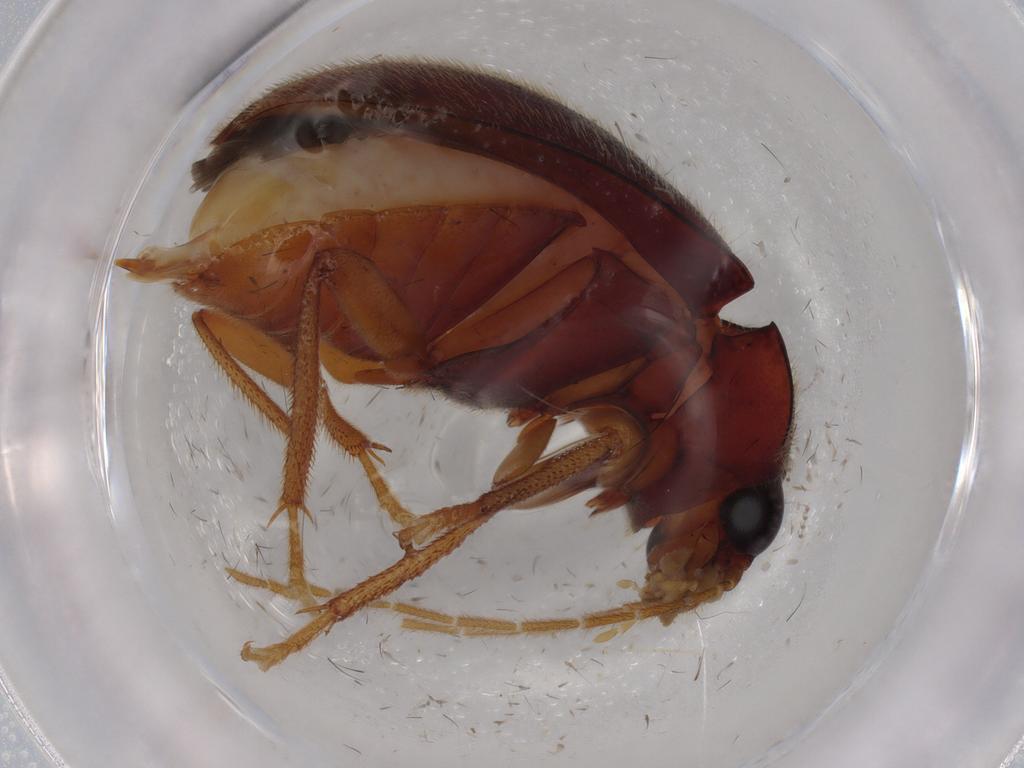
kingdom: Animalia
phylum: Arthropoda
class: Insecta
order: Coleoptera
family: Ptilodactylidae
